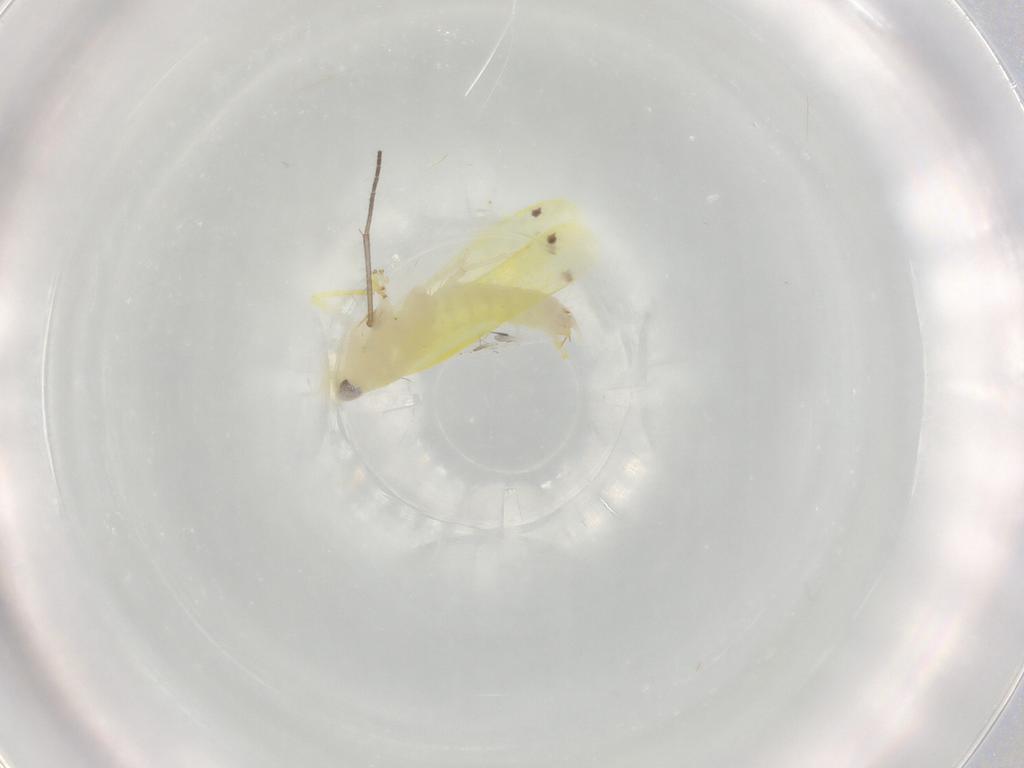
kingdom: Animalia
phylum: Arthropoda
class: Insecta
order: Hemiptera
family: Cicadellidae
